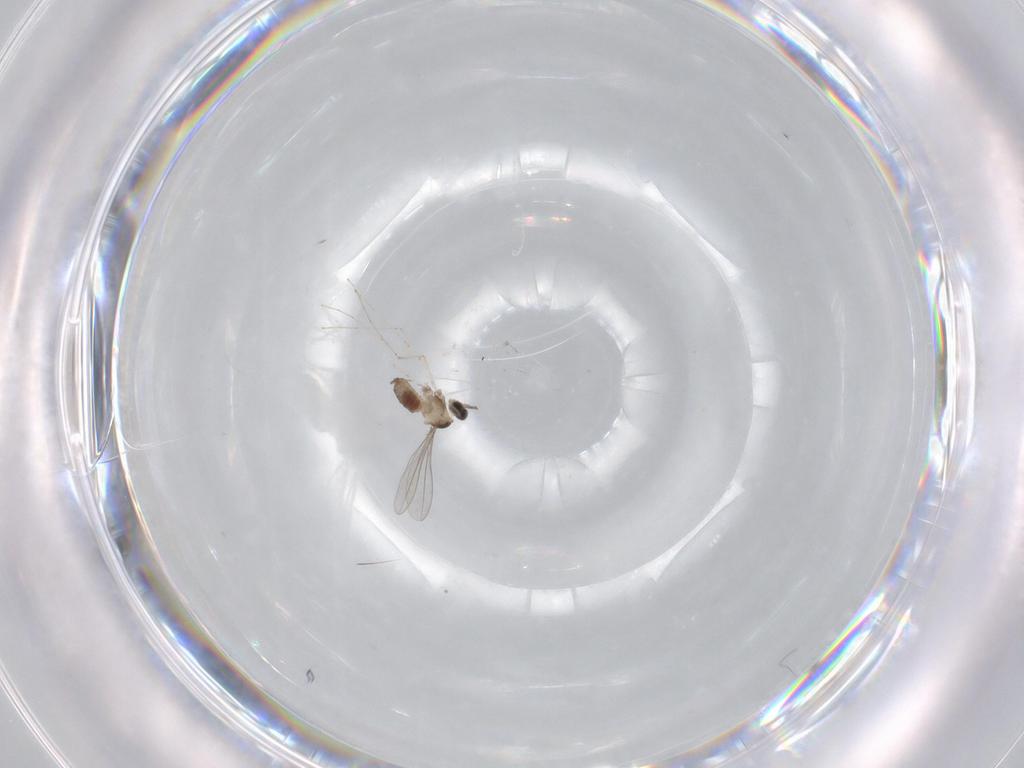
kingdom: Animalia
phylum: Arthropoda
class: Insecta
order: Diptera
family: Cecidomyiidae
